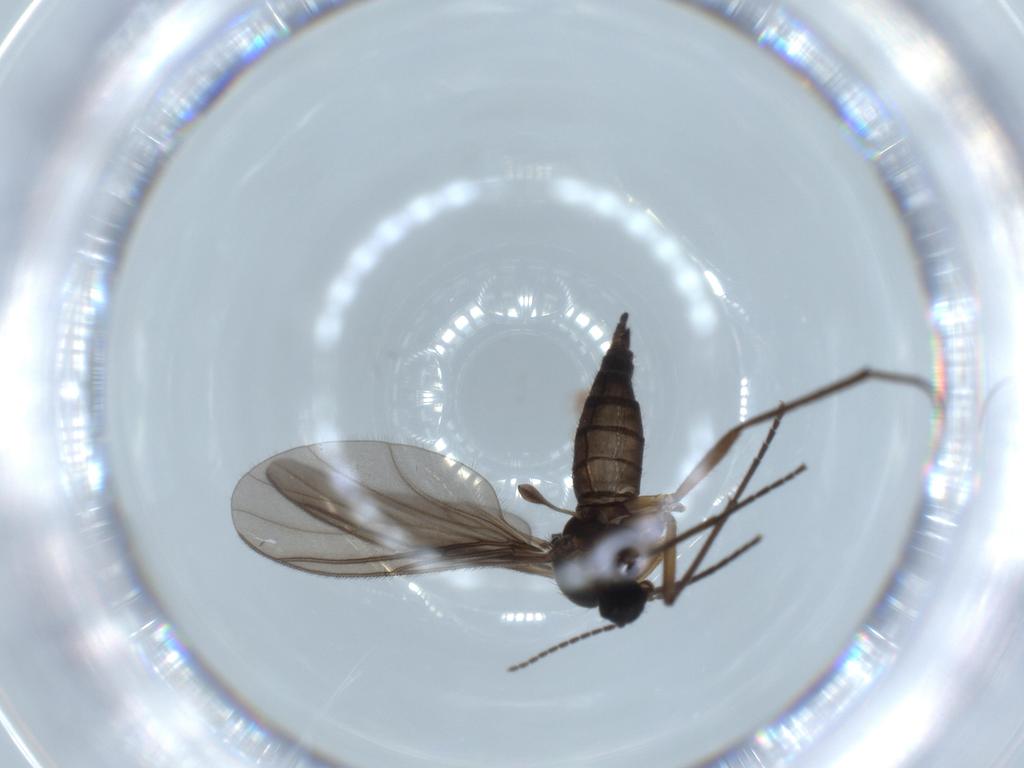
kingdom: Animalia
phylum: Arthropoda
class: Insecta
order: Diptera
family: Sciaridae
